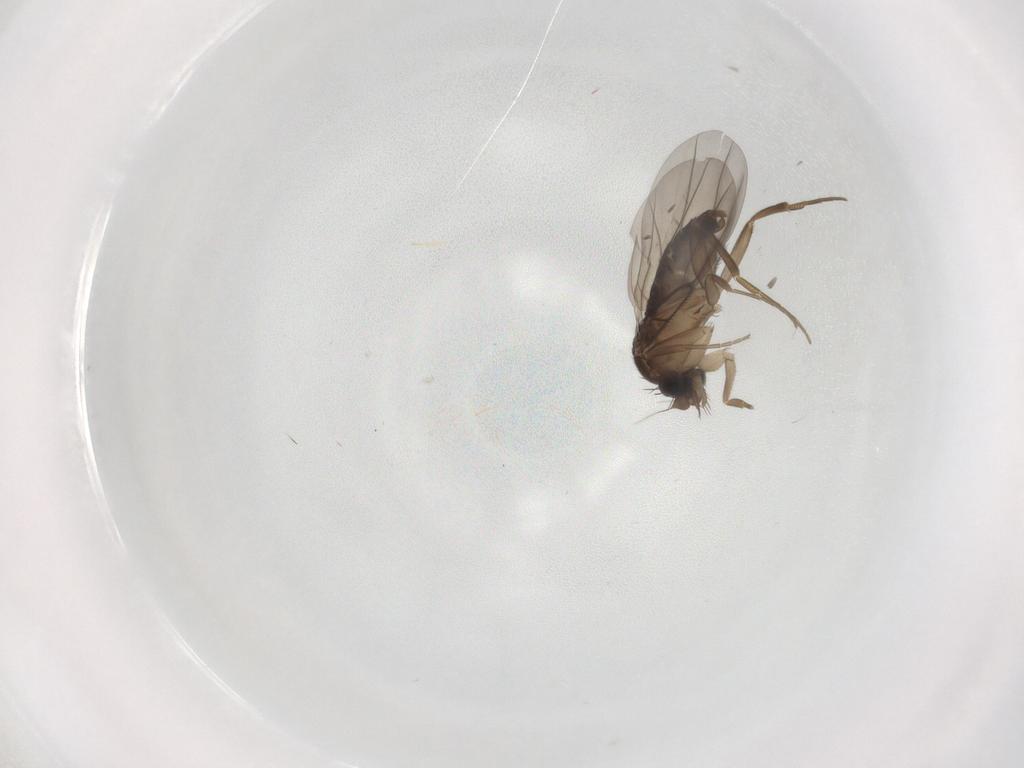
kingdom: Animalia
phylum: Arthropoda
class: Insecta
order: Diptera
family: Phoridae
